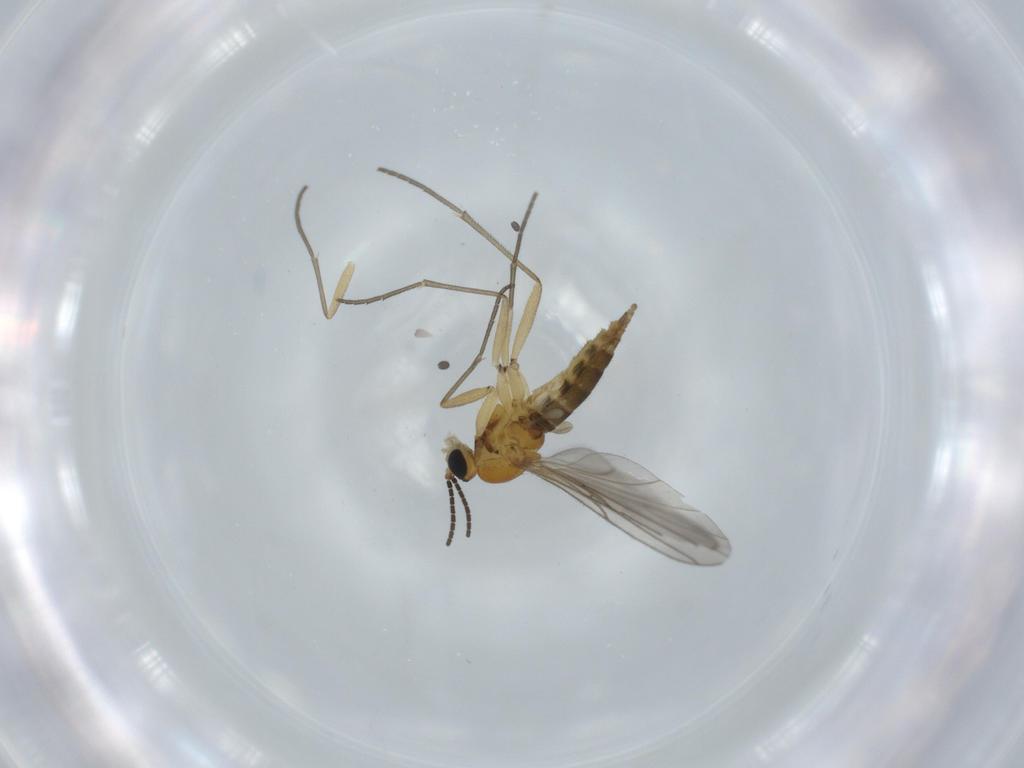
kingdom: Animalia
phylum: Arthropoda
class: Insecta
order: Diptera
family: Sciaridae
